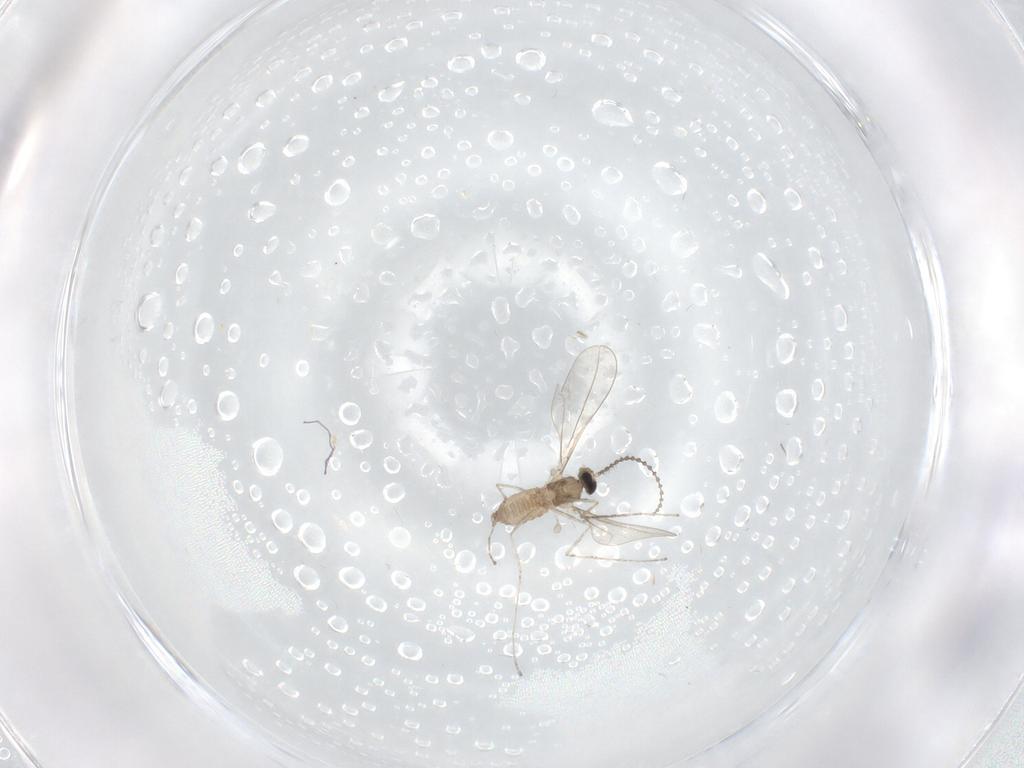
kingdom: Animalia
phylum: Arthropoda
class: Insecta
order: Diptera
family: Cecidomyiidae
